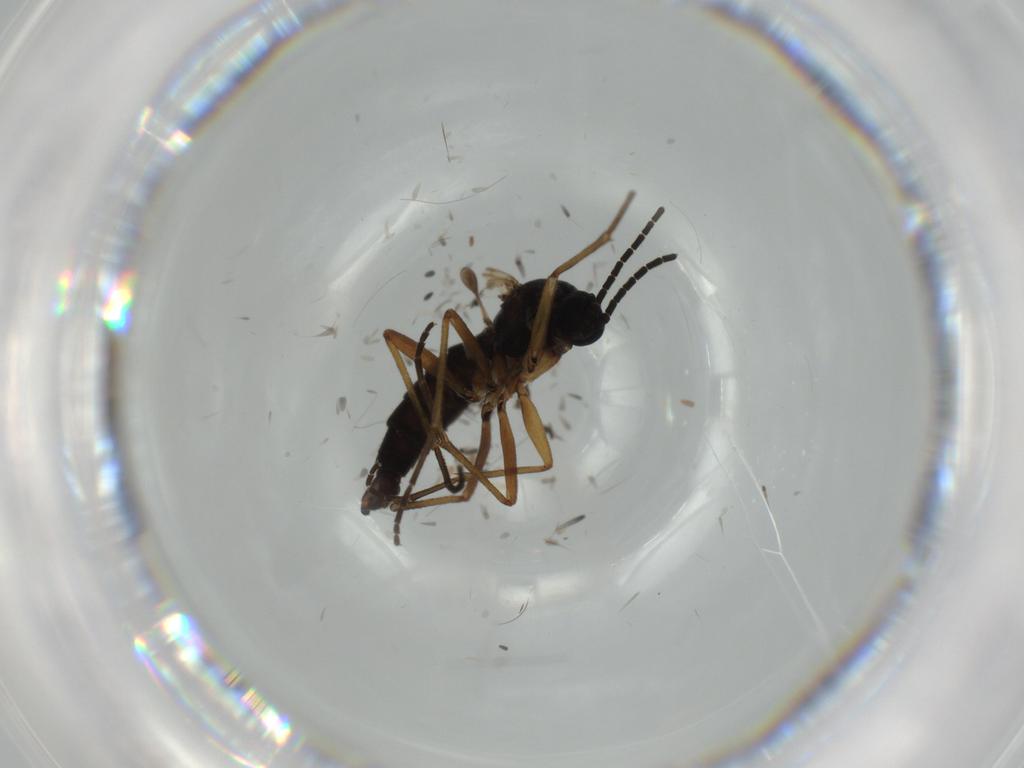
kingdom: Animalia
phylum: Arthropoda
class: Insecta
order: Diptera
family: Sciaridae
